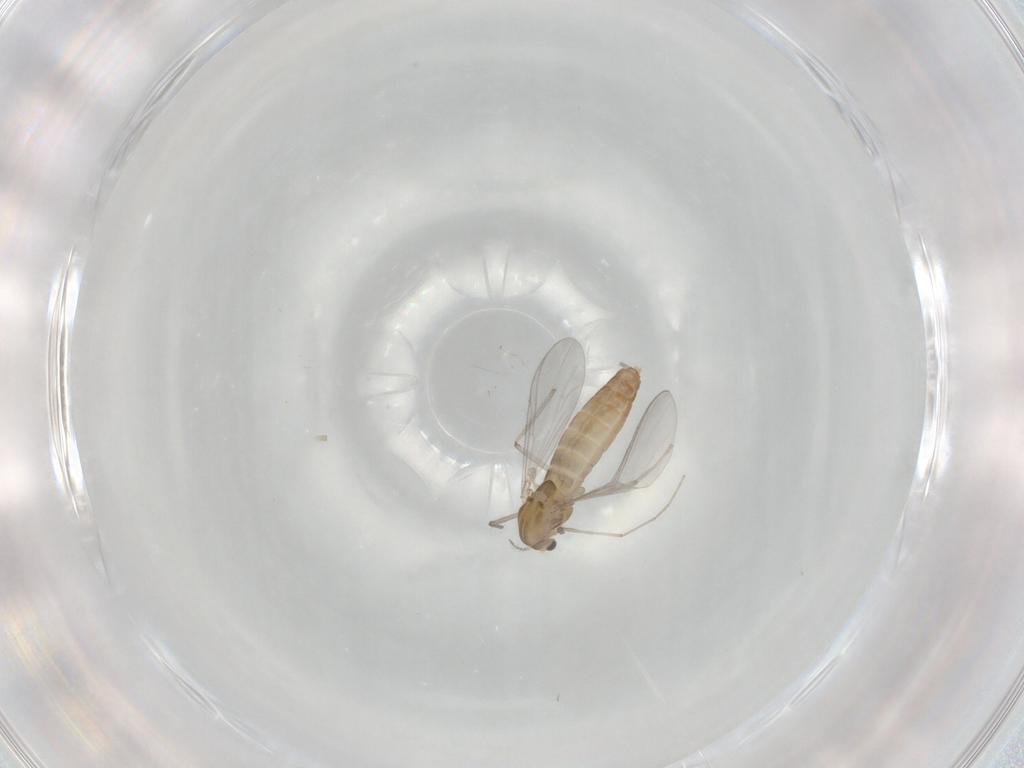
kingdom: Animalia
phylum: Arthropoda
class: Insecta
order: Diptera
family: Chironomidae
